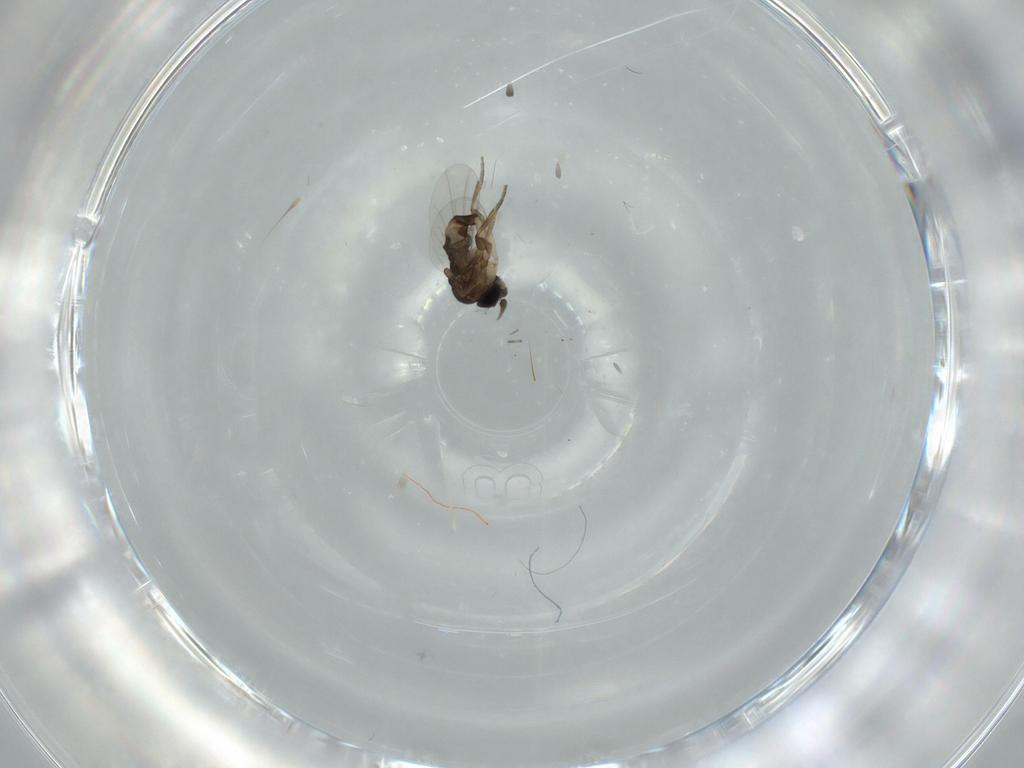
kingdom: Animalia
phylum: Arthropoda
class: Insecta
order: Diptera
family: Phoridae
